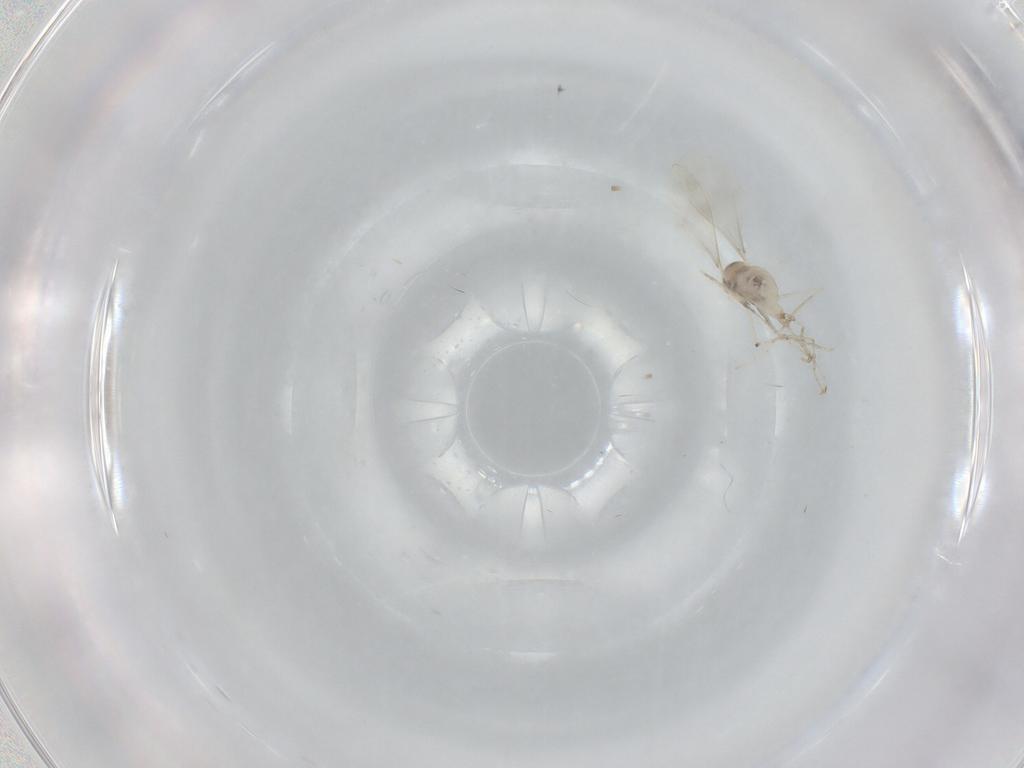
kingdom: Animalia
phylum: Arthropoda
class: Insecta
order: Diptera
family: Cecidomyiidae
